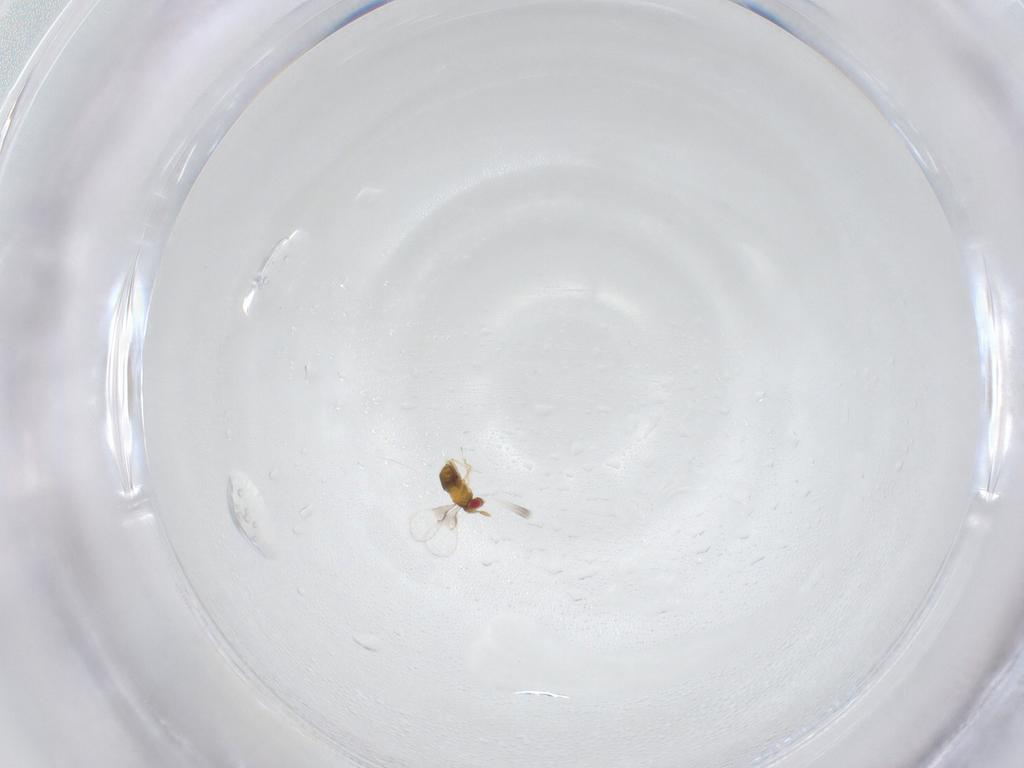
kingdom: Animalia
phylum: Arthropoda
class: Insecta
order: Hymenoptera
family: Trichogrammatidae
